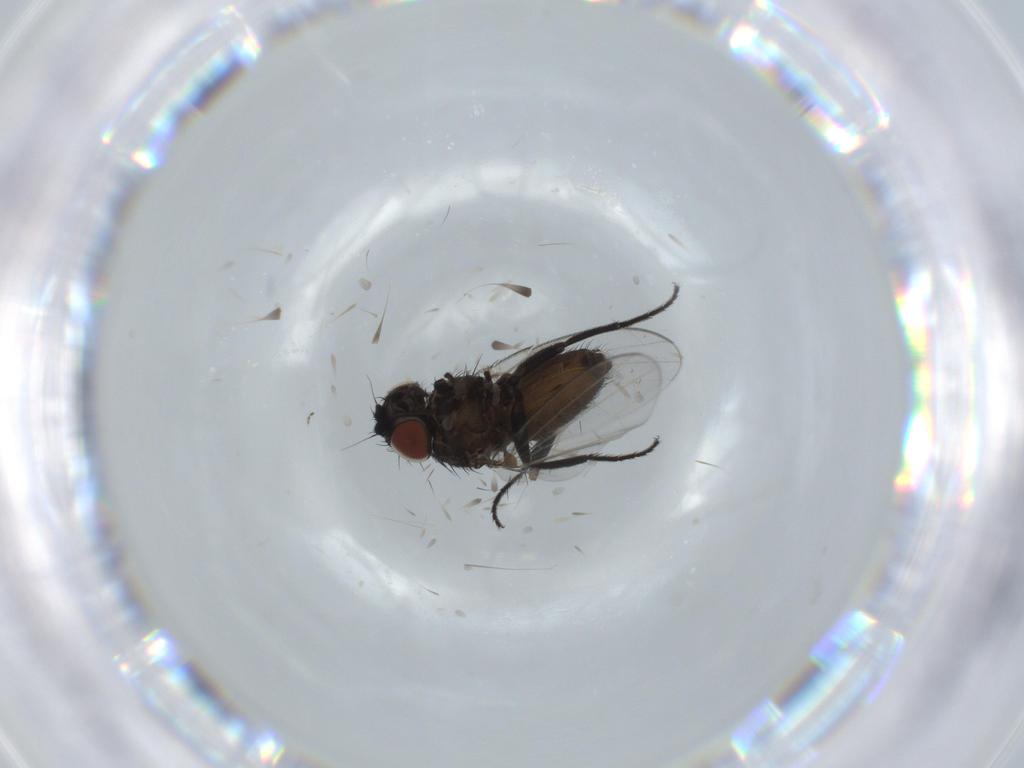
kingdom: Animalia
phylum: Arthropoda
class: Insecta
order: Diptera
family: Milichiidae
